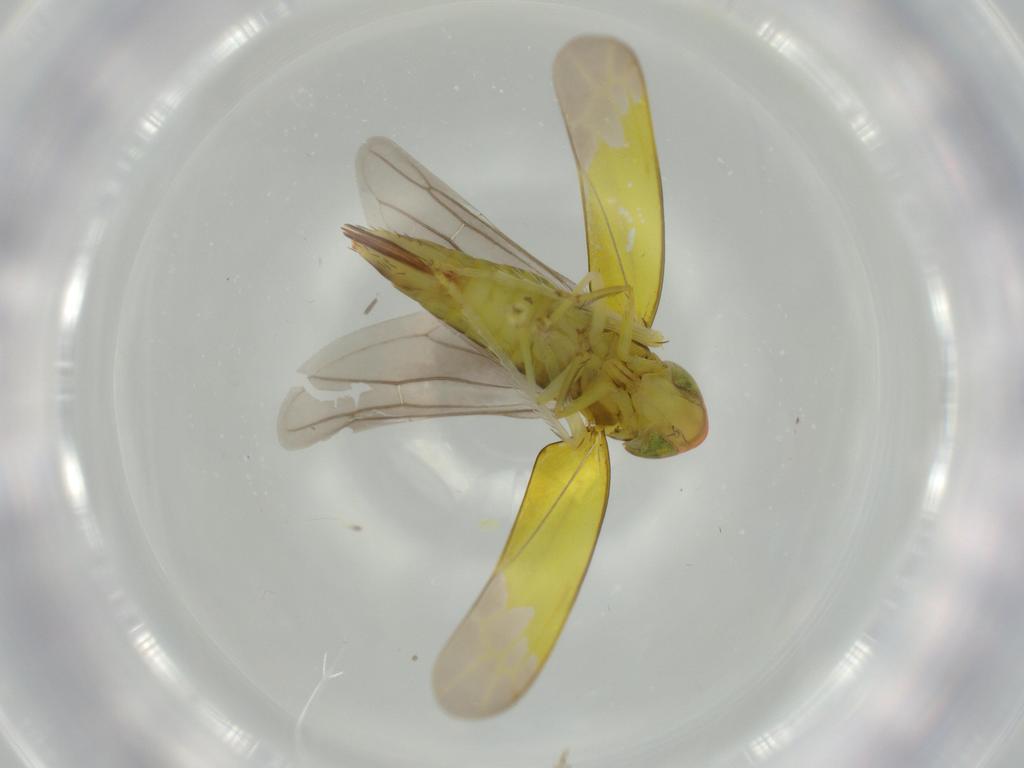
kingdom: Animalia
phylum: Arthropoda
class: Insecta
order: Hemiptera
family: Cicadellidae
